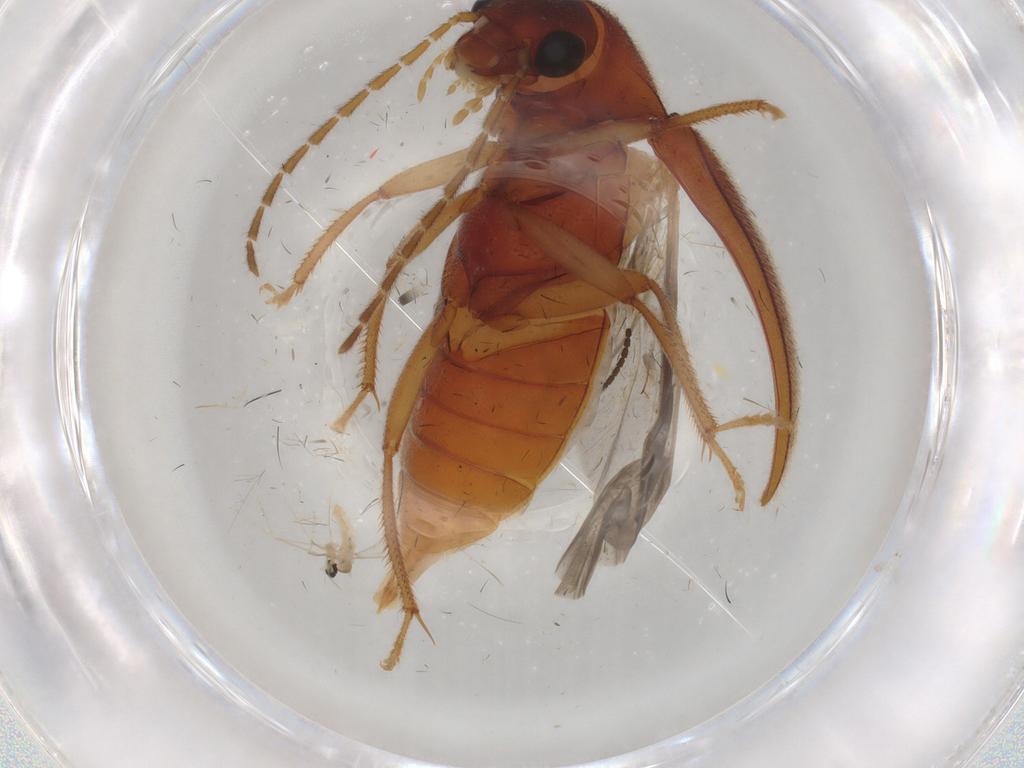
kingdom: Animalia
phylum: Arthropoda
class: Insecta
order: Coleoptera
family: Ptilodactylidae
